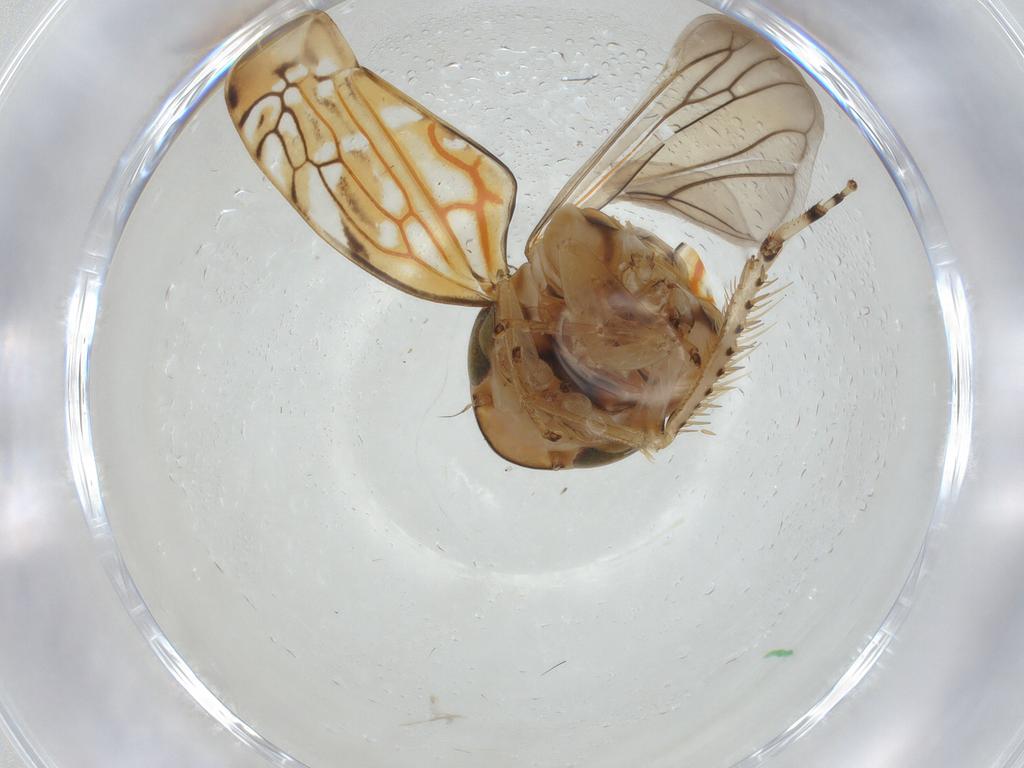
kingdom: Animalia
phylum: Arthropoda
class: Insecta
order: Hemiptera
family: Cicadellidae
